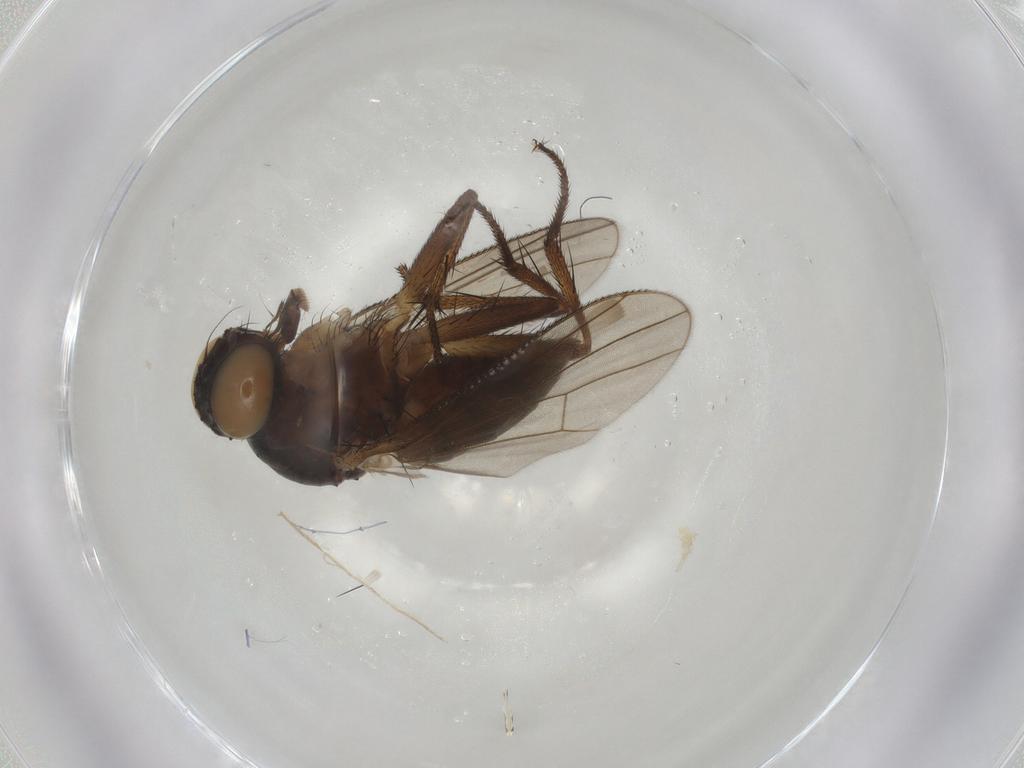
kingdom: Animalia
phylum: Arthropoda
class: Insecta
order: Diptera
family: Muscidae
